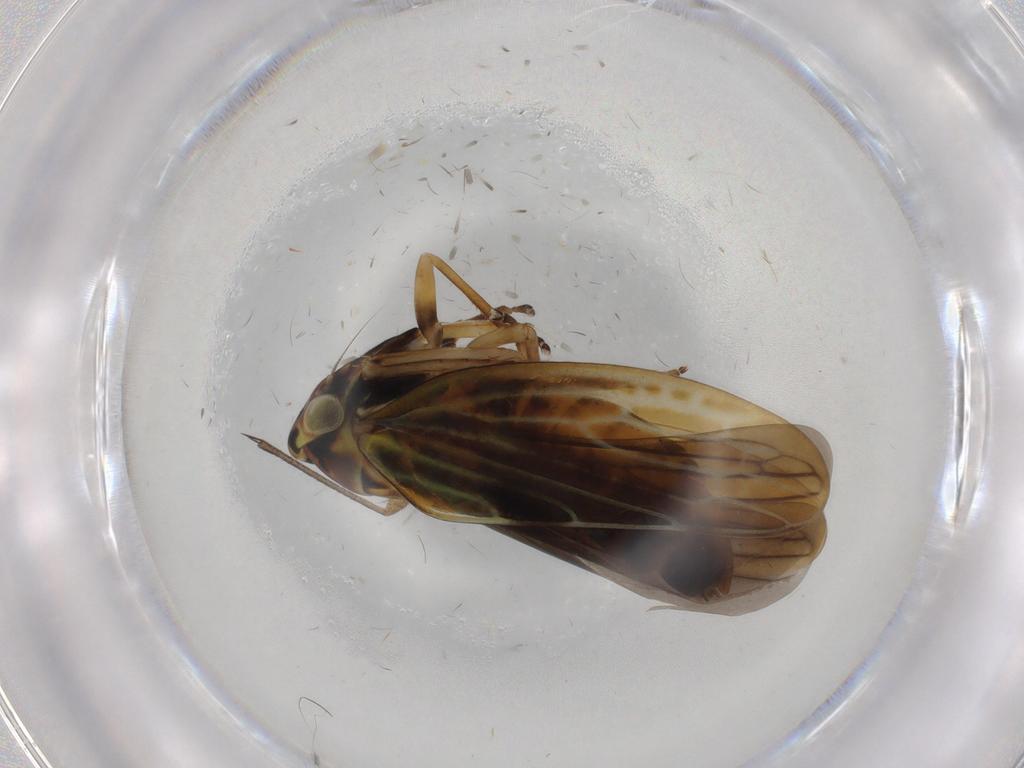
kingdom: Animalia
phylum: Arthropoda
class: Insecta
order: Hemiptera
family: Cicadellidae
